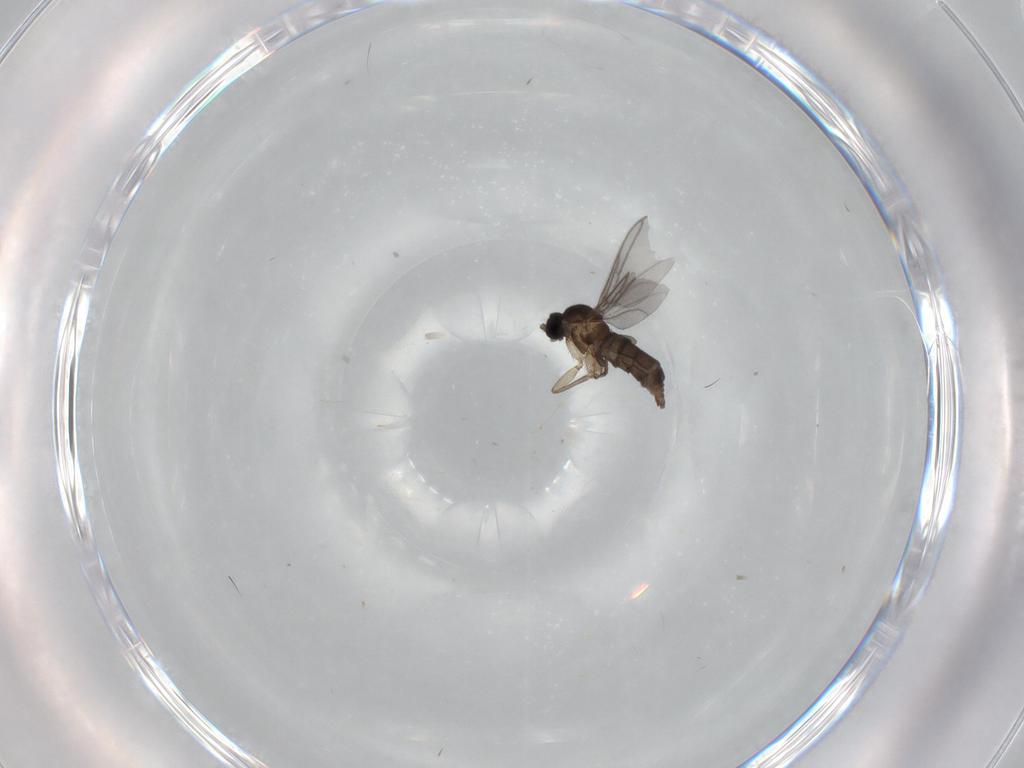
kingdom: Animalia
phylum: Arthropoda
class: Insecta
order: Diptera
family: Ceratopogonidae
